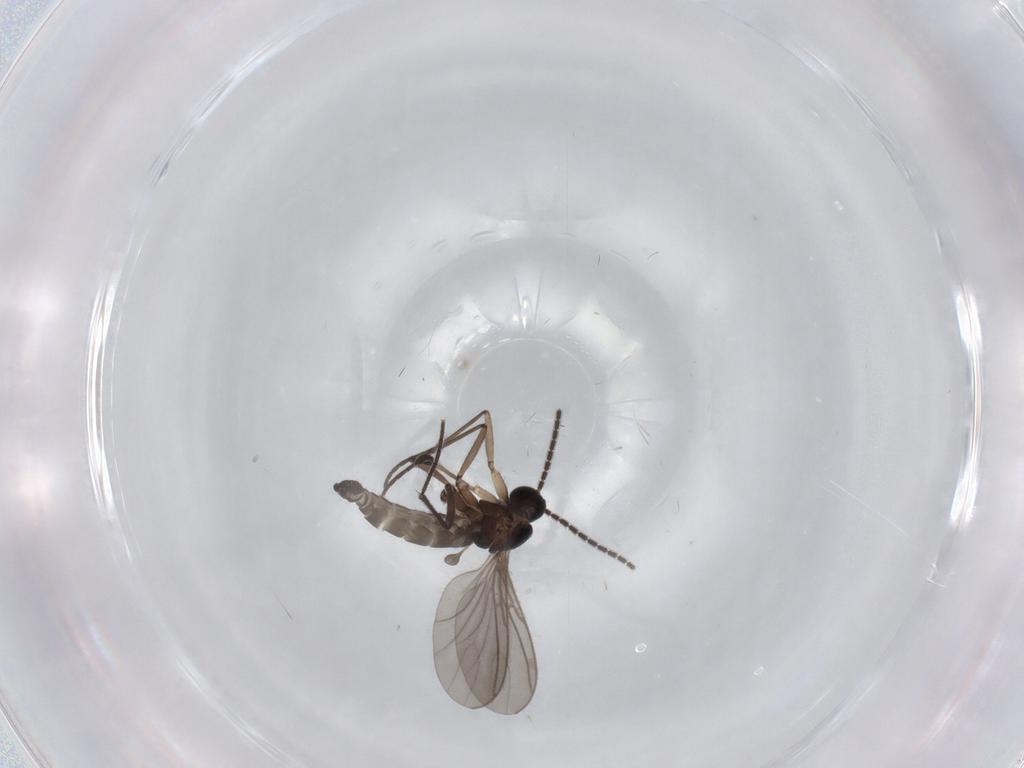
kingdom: Animalia
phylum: Arthropoda
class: Insecta
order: Diptera
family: Sciaridae
